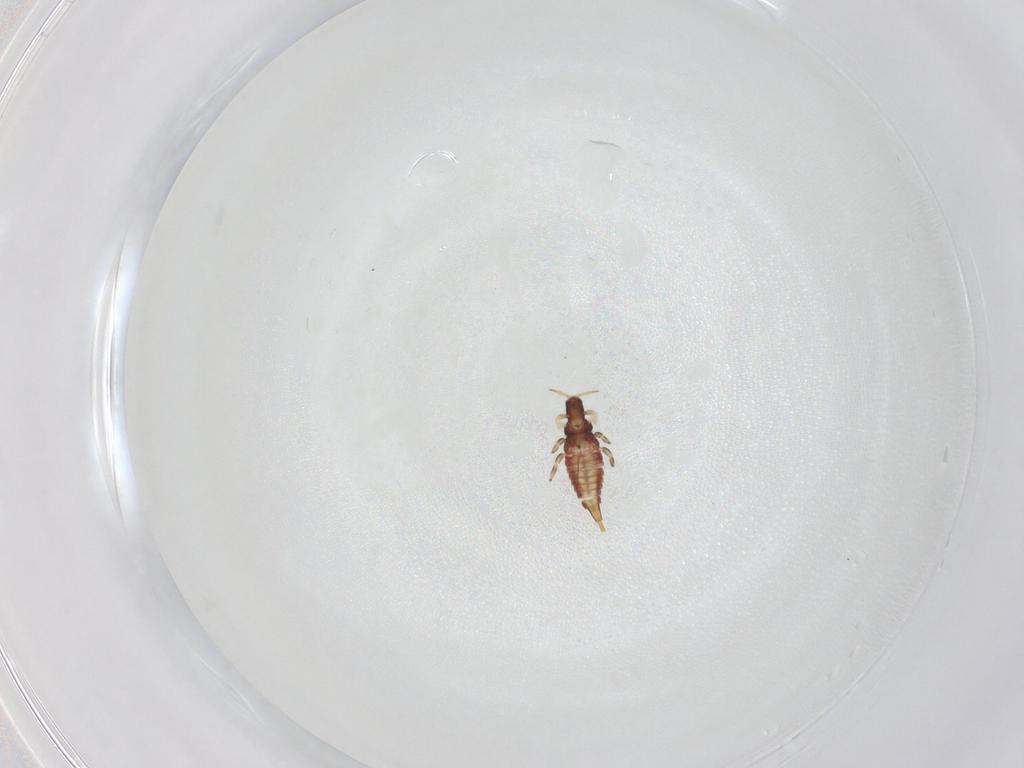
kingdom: Animalia
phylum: Arthropoda
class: Insecta
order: Thysanoptera
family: Phlaeothripidae
